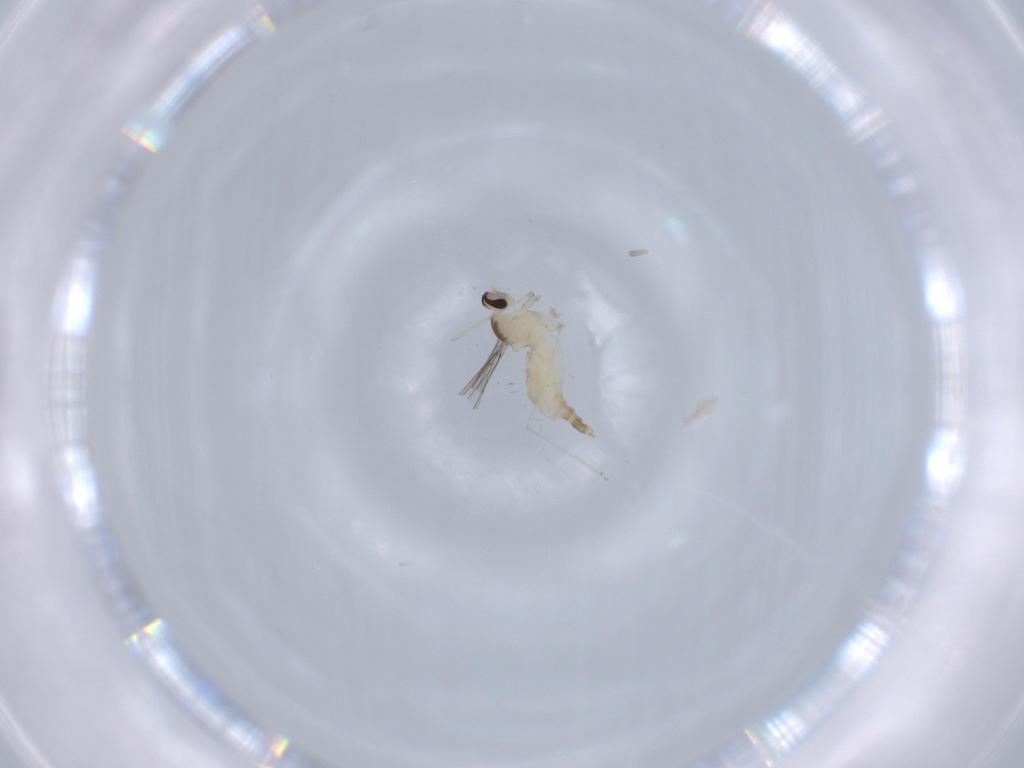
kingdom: Animalia
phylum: Arthropoda
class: Insecta
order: Diptera
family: Cecidomyiidae
